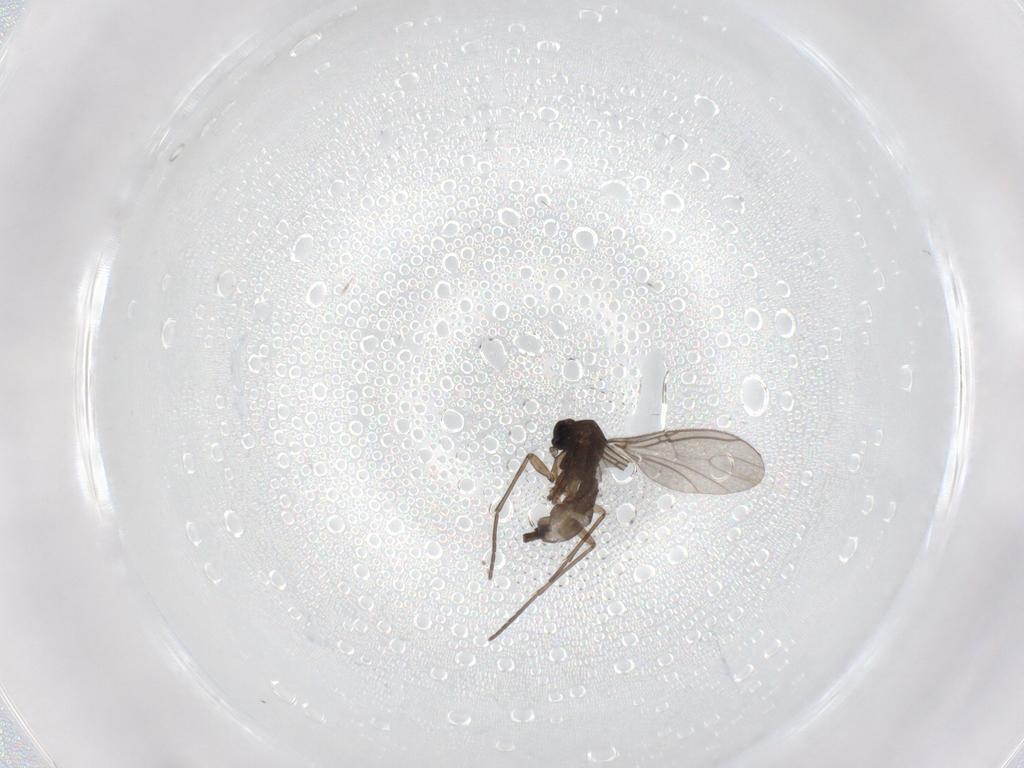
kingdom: Animalia
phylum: Arthropoda
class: Insecta
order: Diptera
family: Sciaridae
